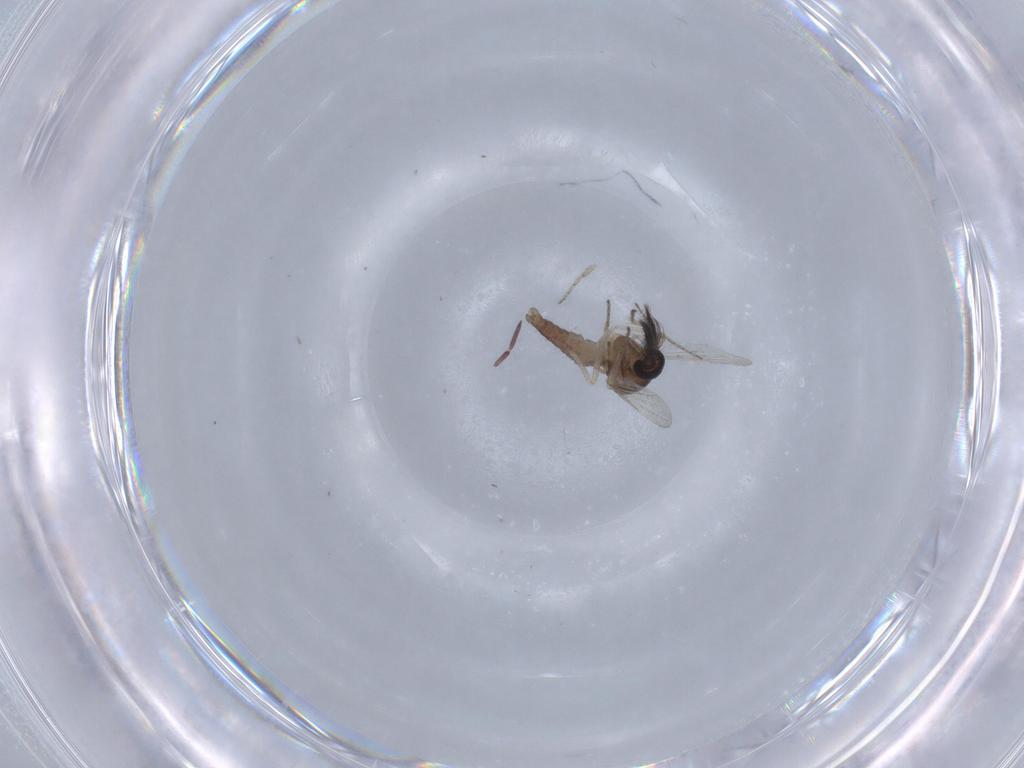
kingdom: Animalia
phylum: Arthropoda
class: Insecta
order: Diptera
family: Ceratopogonidae
